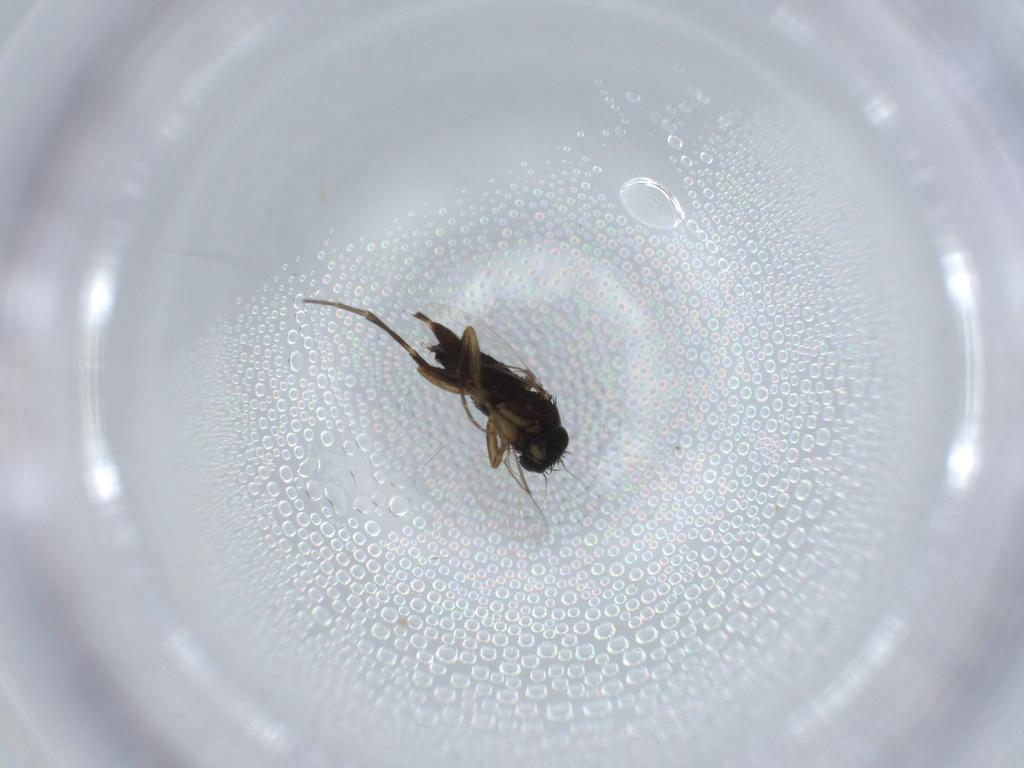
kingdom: Animalia
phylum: Arthropoda
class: Insecta
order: Diptera
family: Phoridae
